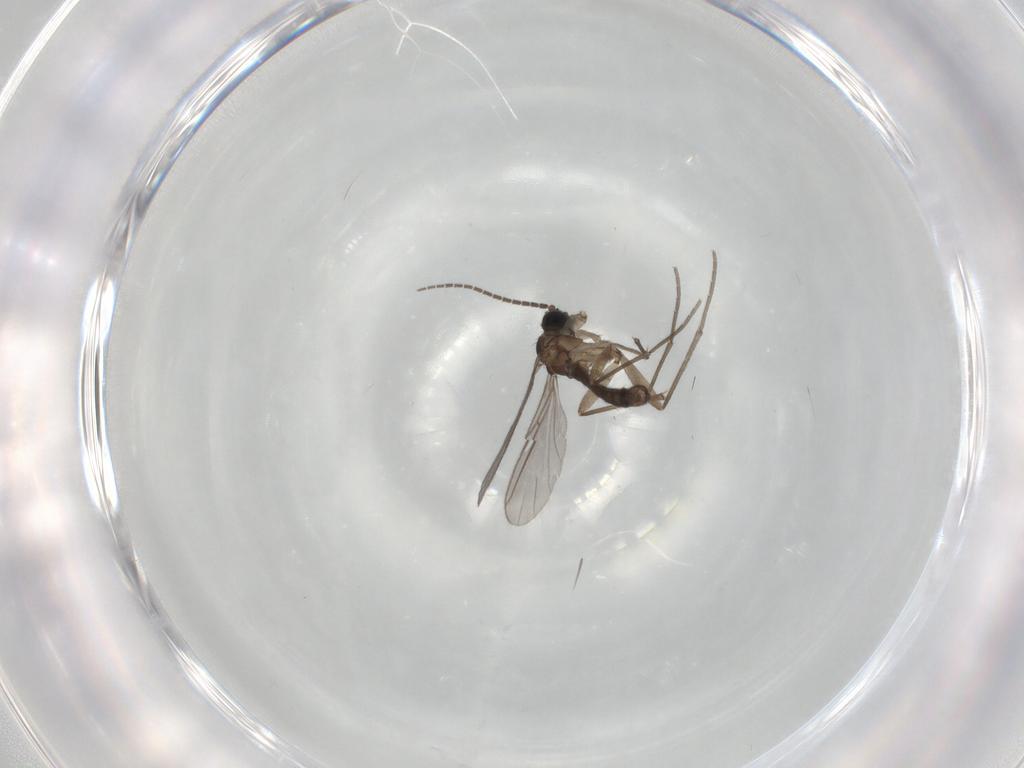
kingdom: Animalia
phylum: Arthropoda
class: Insecta
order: Diptera
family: Sciaridae
